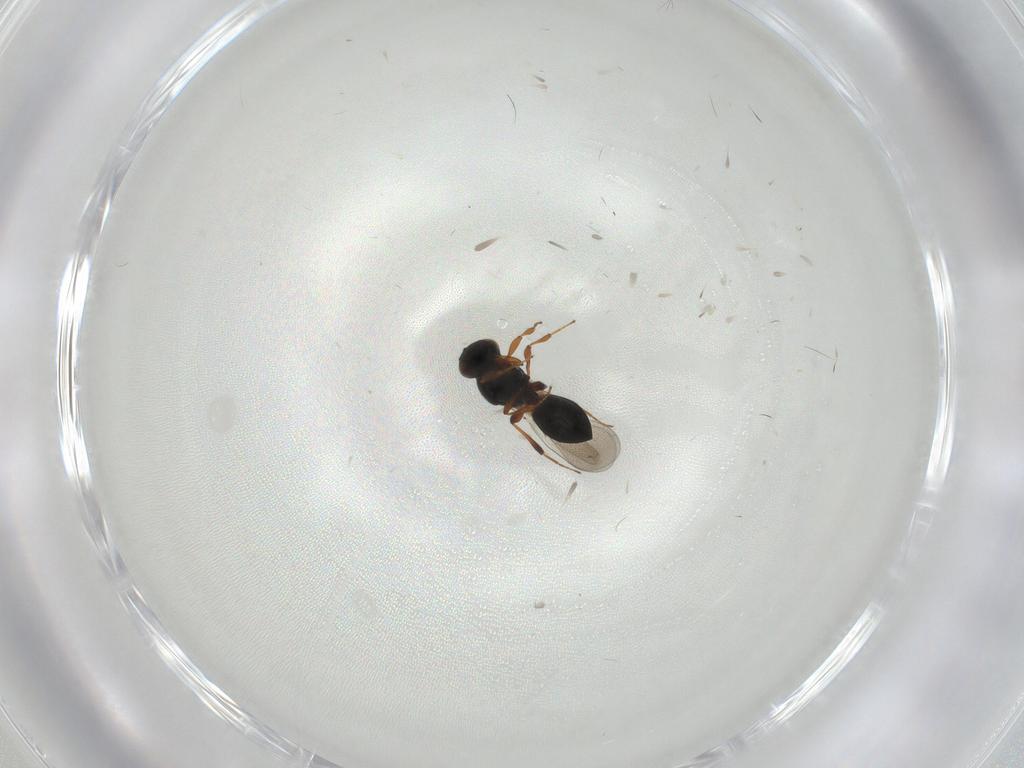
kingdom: Animalia
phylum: Arthropoda
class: Insecta
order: Hymenoptera
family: Platygastridae
